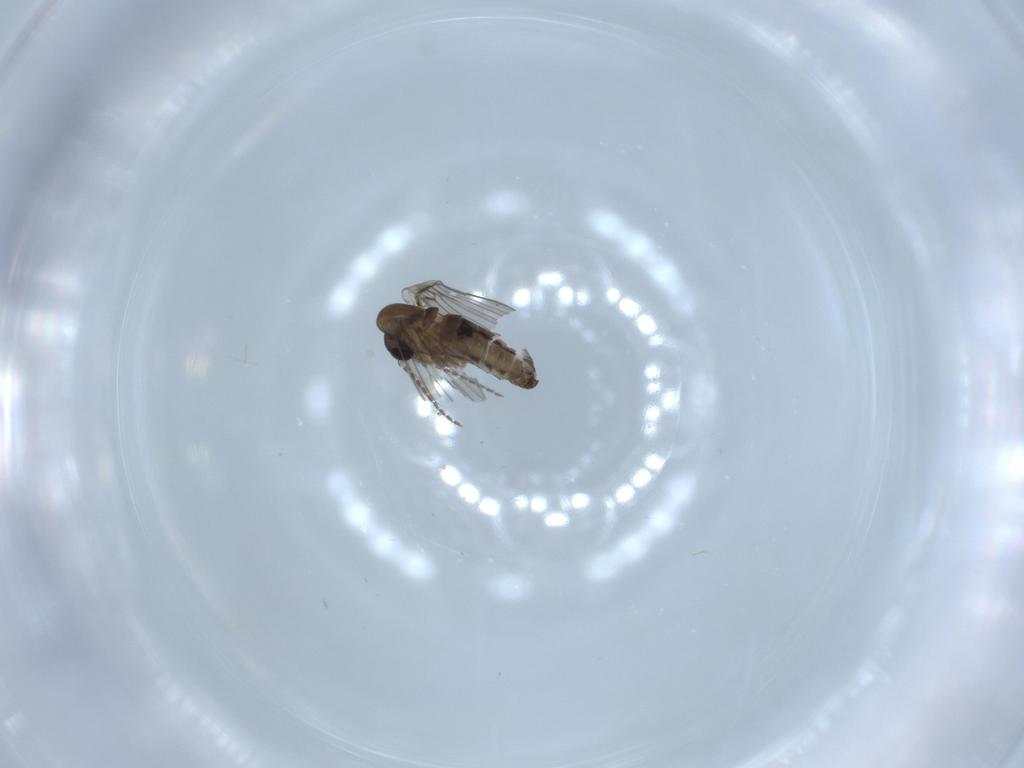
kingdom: Animalia
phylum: Arthropoda
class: Insecta
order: Diptera
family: Psychodidae
